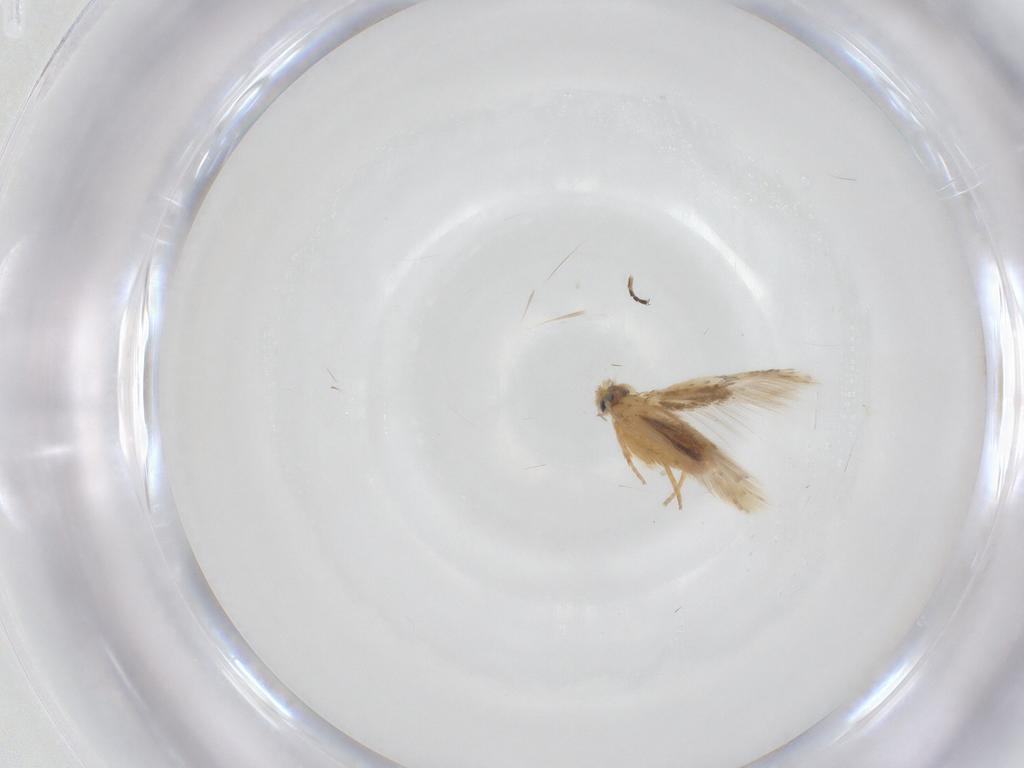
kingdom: Animalia
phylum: Arthropoda
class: Insecta
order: Lepidoptera
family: Nepticulidae
